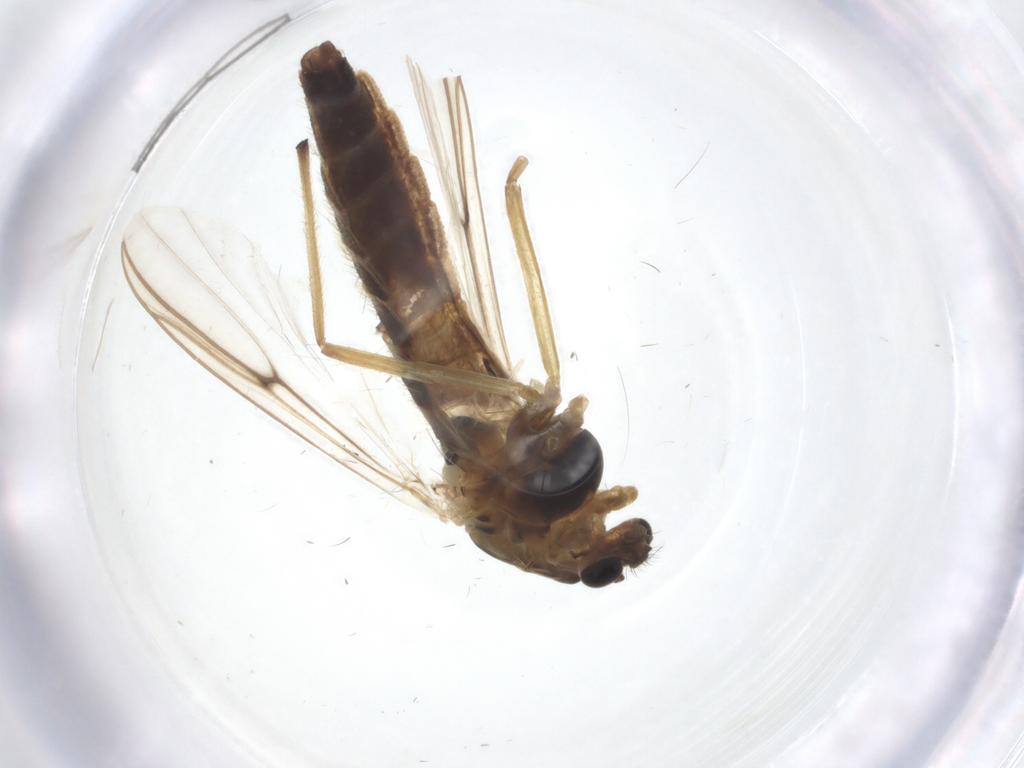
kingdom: Animalia
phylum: Arthropoda
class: Insecta
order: Diptera
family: Chironomidae
